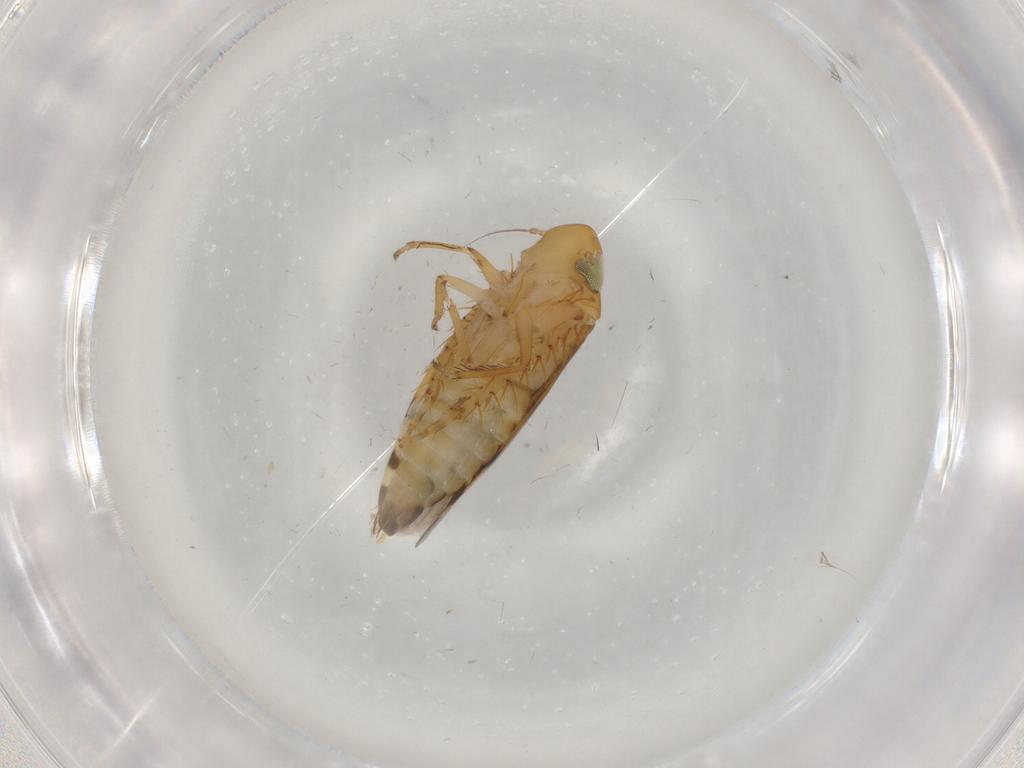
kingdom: Animalia
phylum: Arthropoda
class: Insecta
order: Hemiptera
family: Cicadellidae
